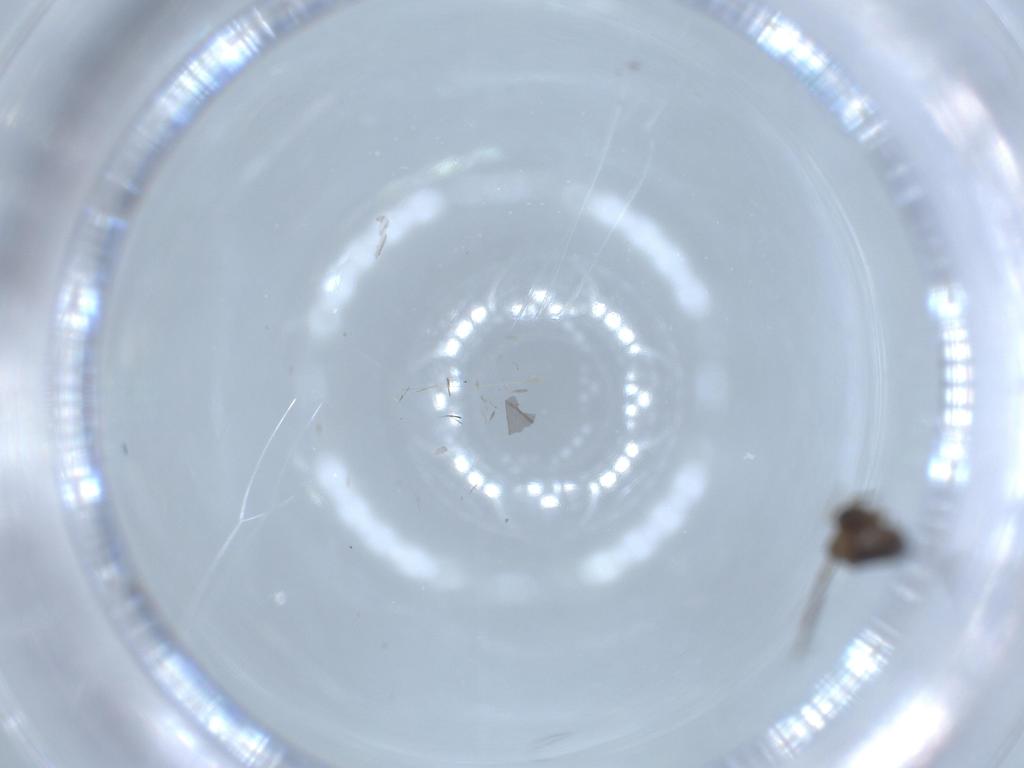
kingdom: Animalia
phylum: Arthropoda
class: Insecta
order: Diptera
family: Psychodidae
